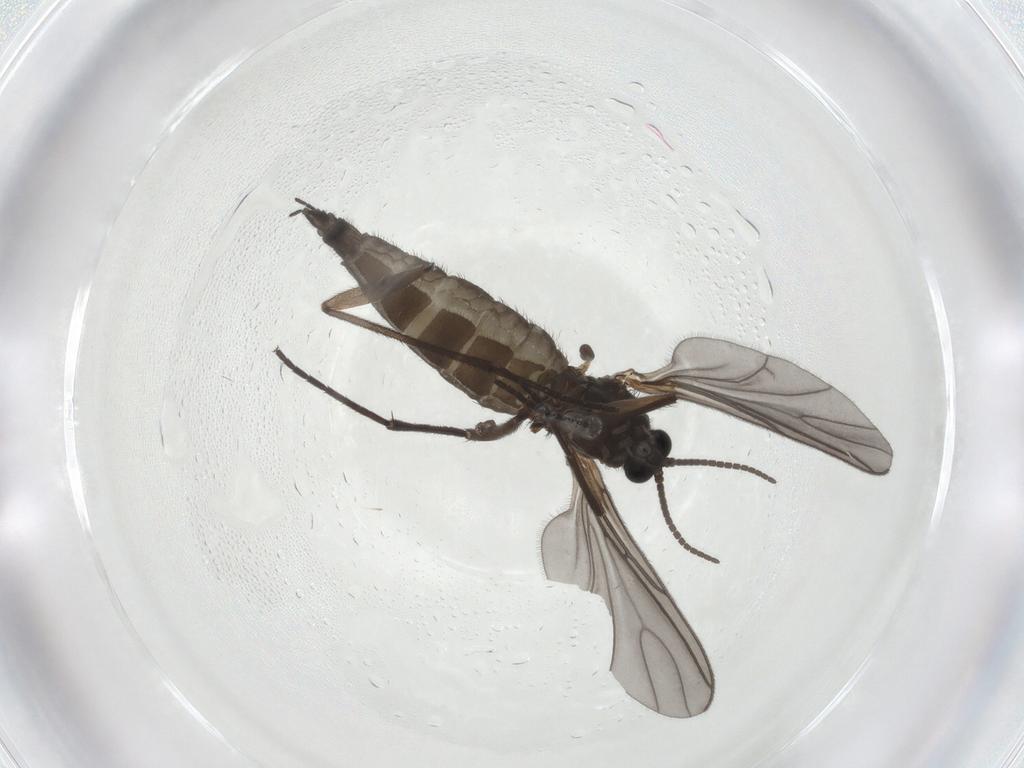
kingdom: Animalia
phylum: Arthropoda
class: Insecta
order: Diptera
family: Sciaridae
